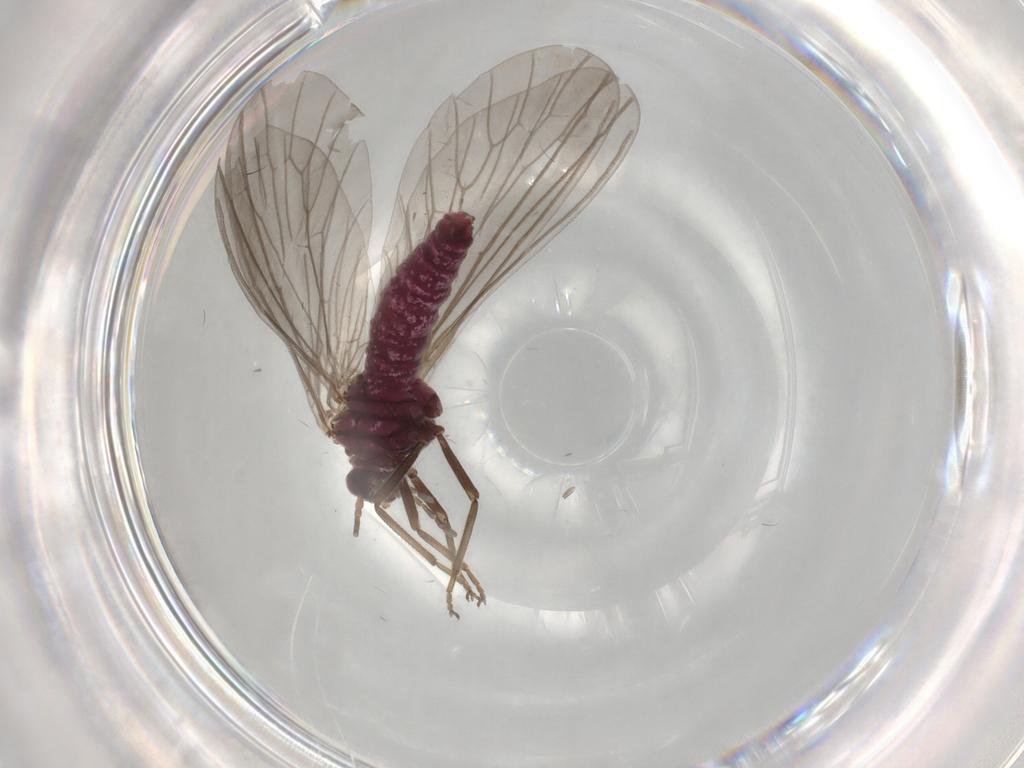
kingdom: Animalia
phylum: Arthropoda
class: Insecta
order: Neuroptera
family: Coniopterygidae
